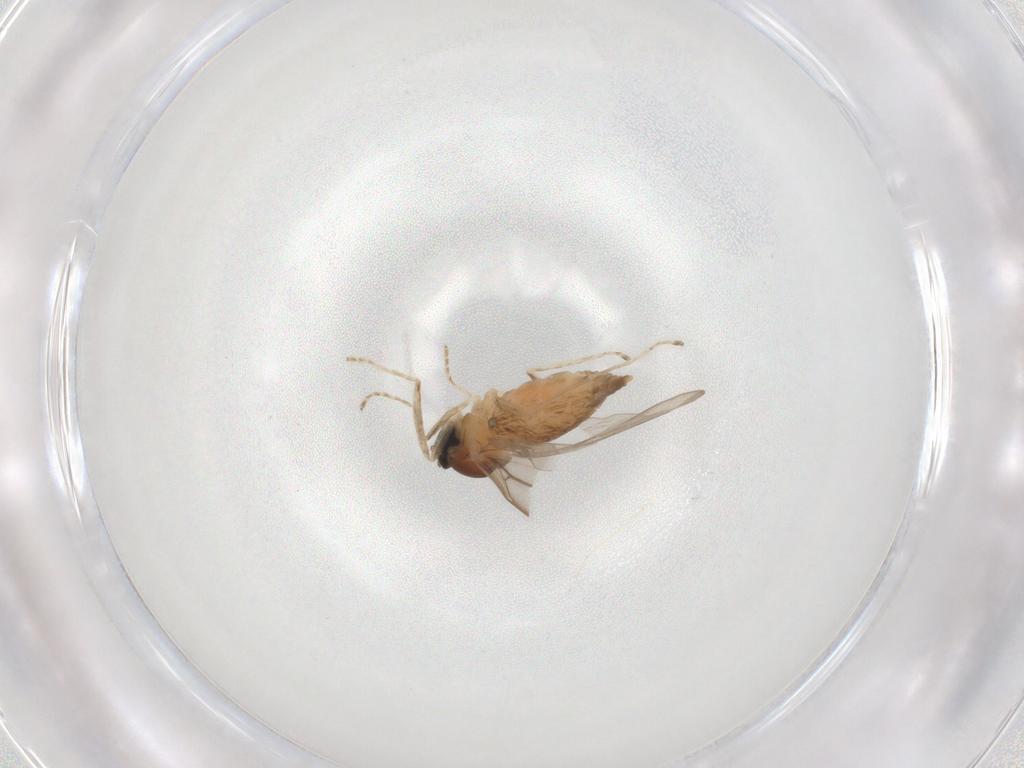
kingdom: Animalia
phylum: Arthropoda
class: Insecta
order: Diptera
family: Cecidomyiidae
